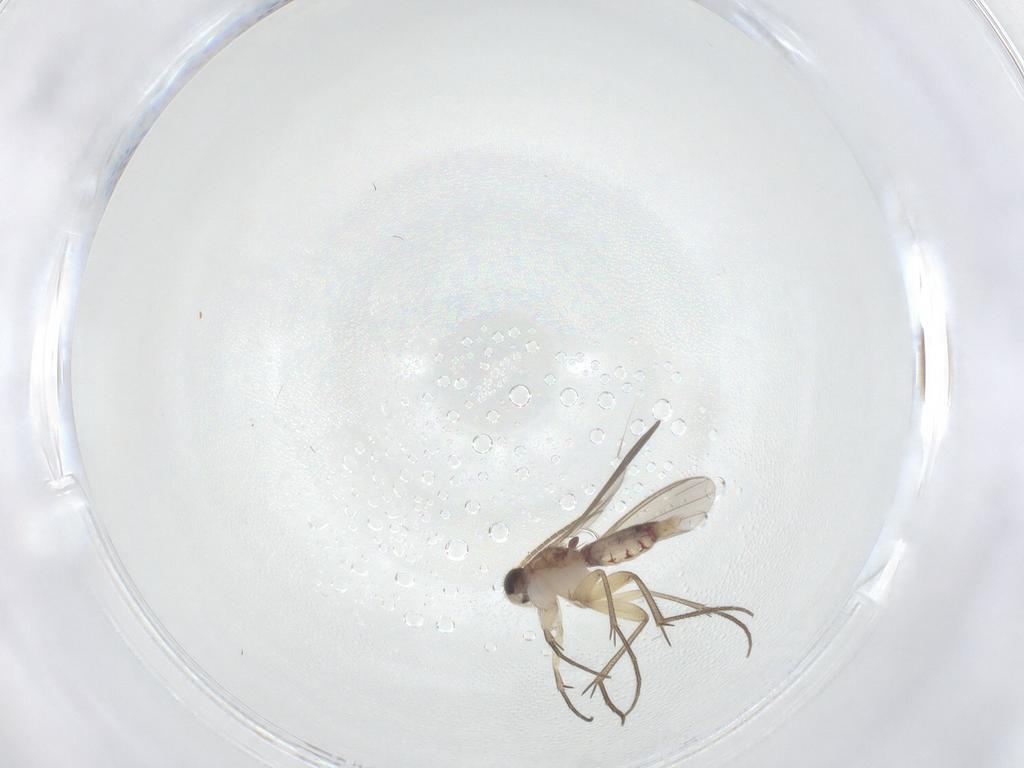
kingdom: Animalia
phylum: Arthropoda
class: Insecta
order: Diptera
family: Mycetophilidae
